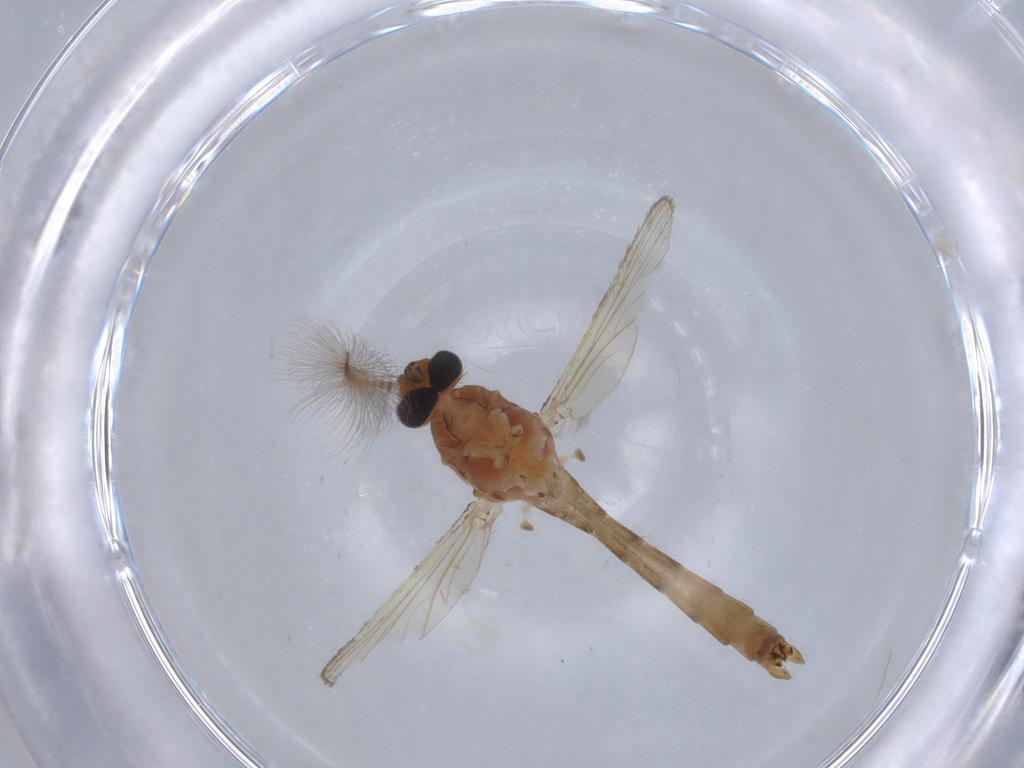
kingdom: Animalia
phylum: Arthropoda
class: Insecta
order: Diptera
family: Culicidae
